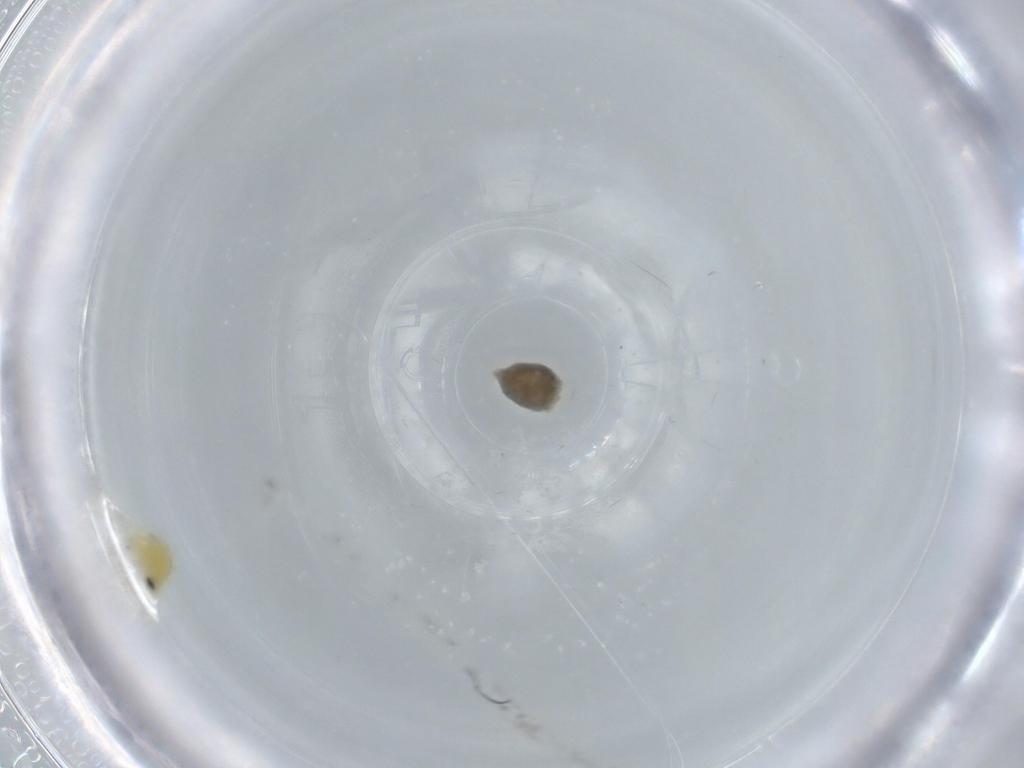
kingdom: Animalia
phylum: Arthropoda
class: Insecta
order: Hemiptera
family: Aleyrodidae
